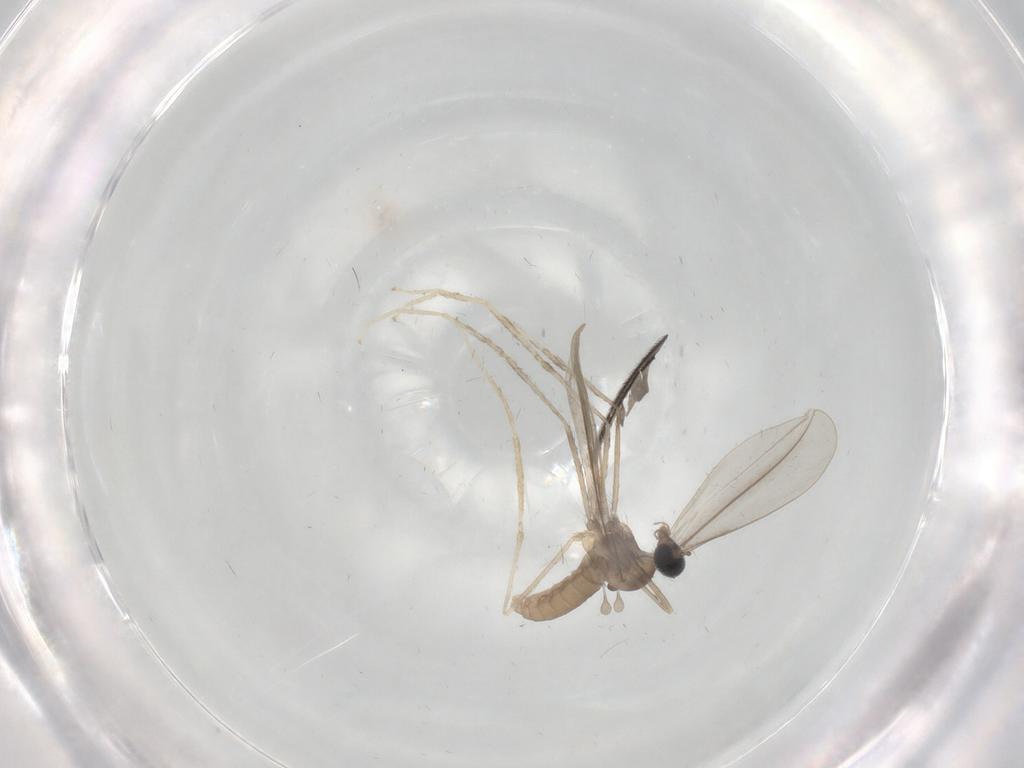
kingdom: Animalia
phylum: Arthropoda
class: Insecta
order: Diptera
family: Cecidomyiidae
